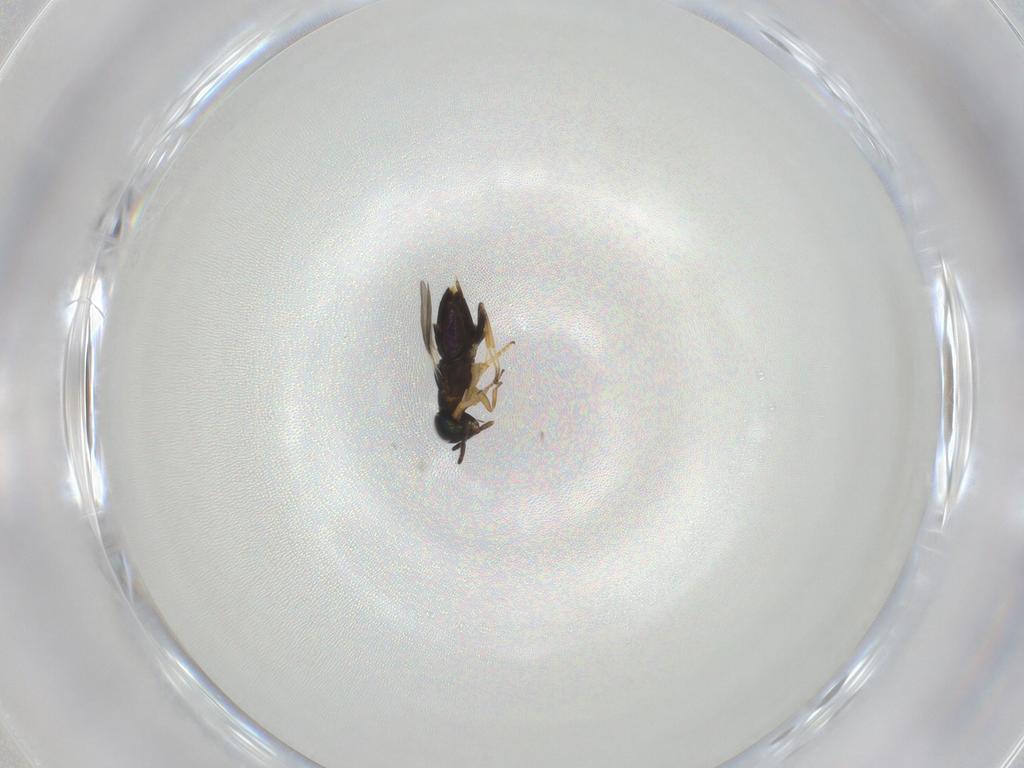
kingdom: Animalia
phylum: Arthropoda
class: Insecta
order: Hymenoptera
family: Encyrtidae
